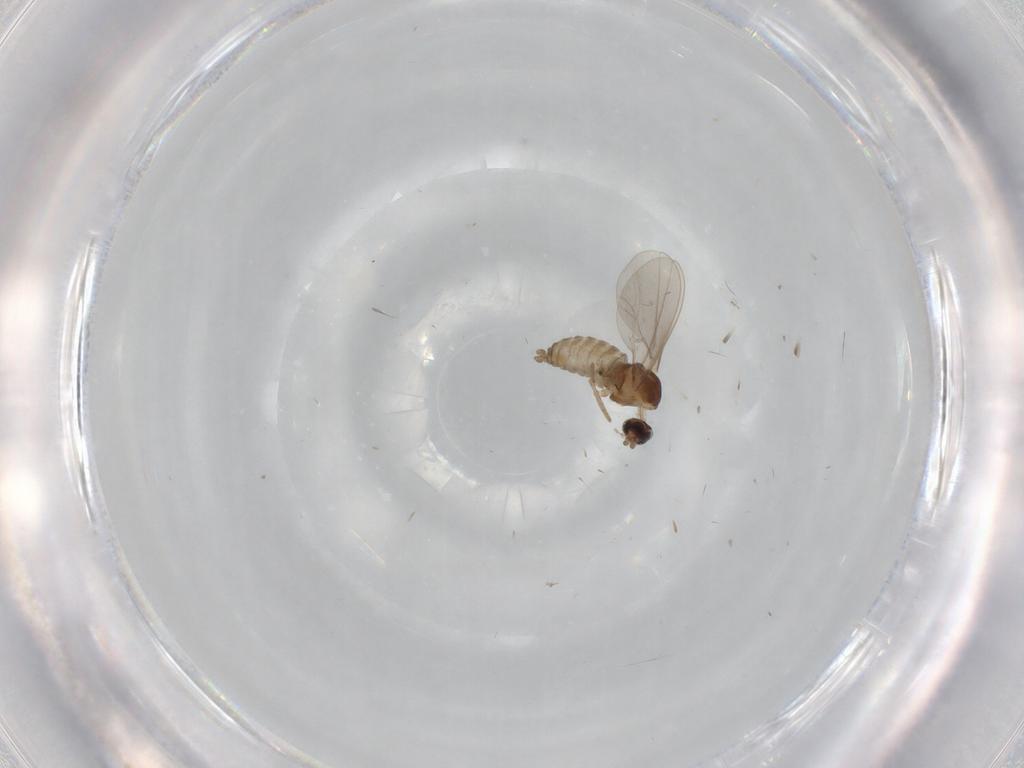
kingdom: Animalia
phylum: Arthropoda
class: Insecta
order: Diptera
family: Cecidomyiidae
